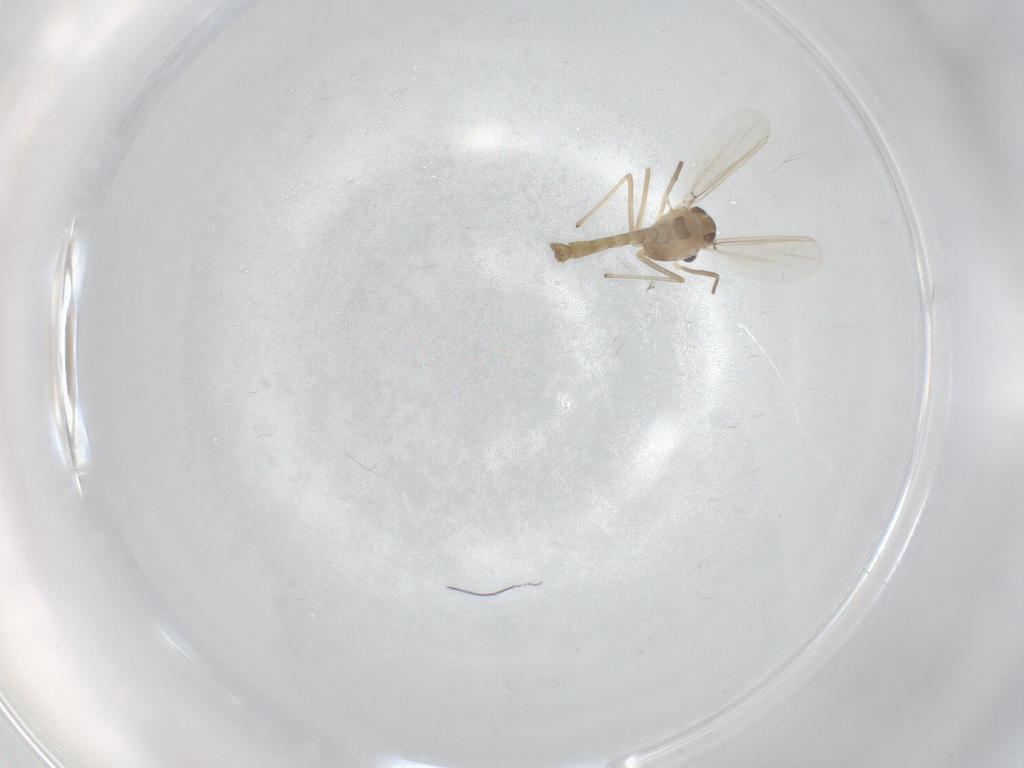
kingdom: Animalia
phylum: Arthropoda
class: Insecta
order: Diptera
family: Chironomidae
